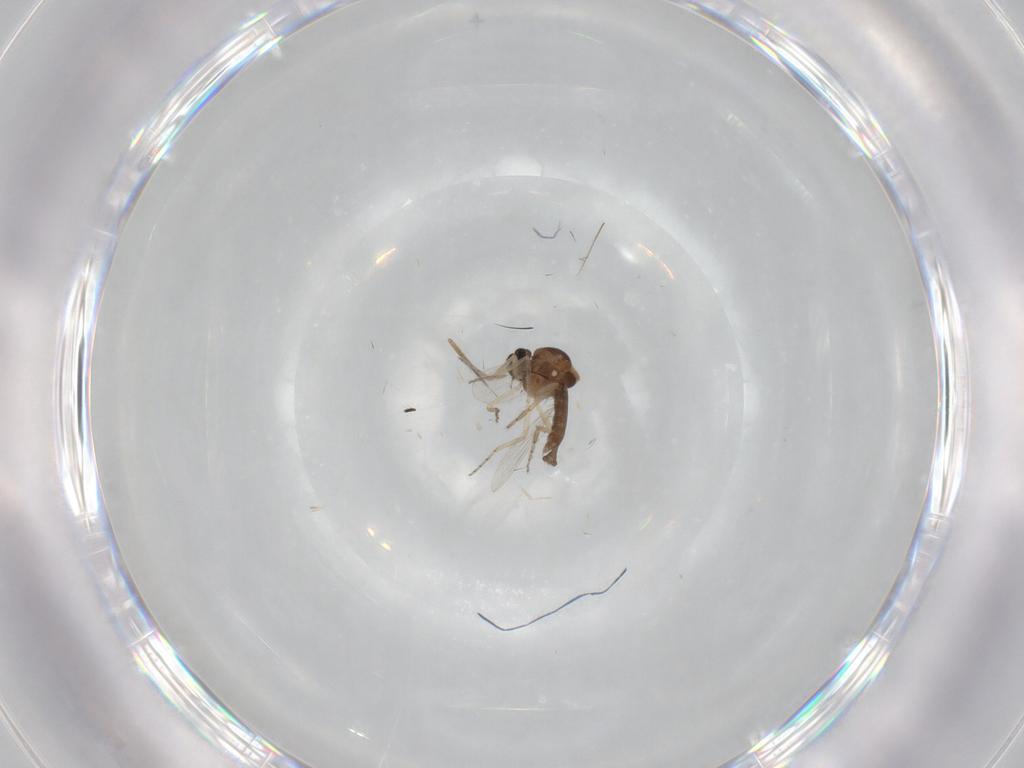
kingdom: Animalia
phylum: Arthropoda
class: Insecta
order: Diptera
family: Ceratopogonidae
